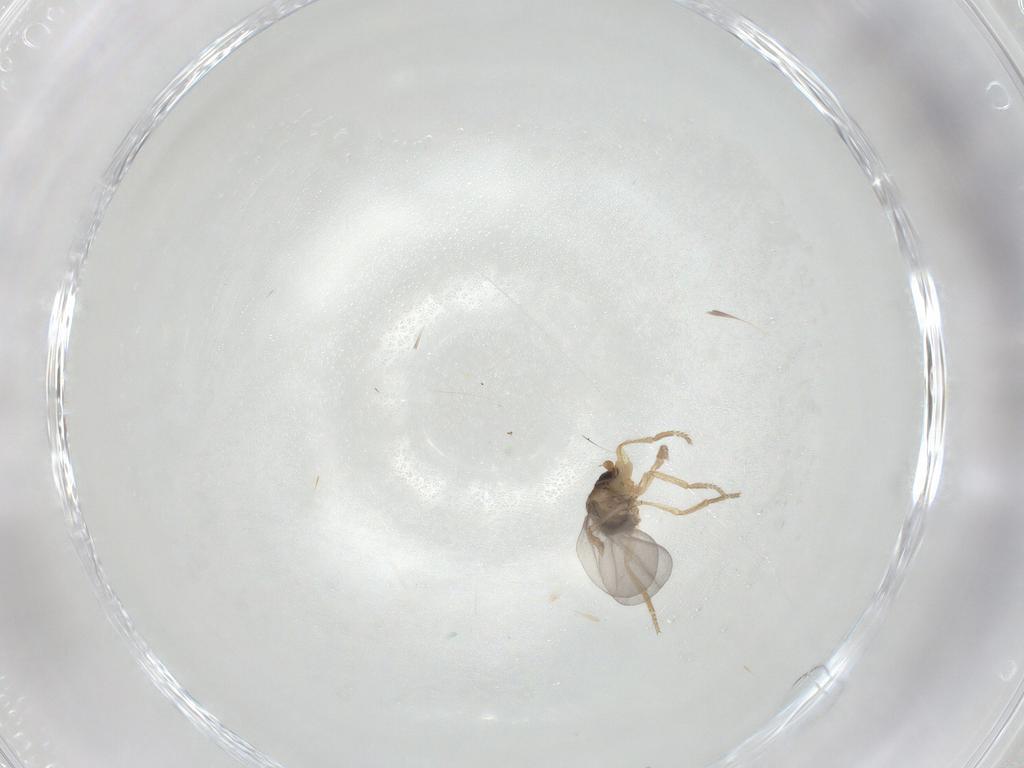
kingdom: Animalia
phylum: Arthropoda
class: Insecta
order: Diptera
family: Phoridae
